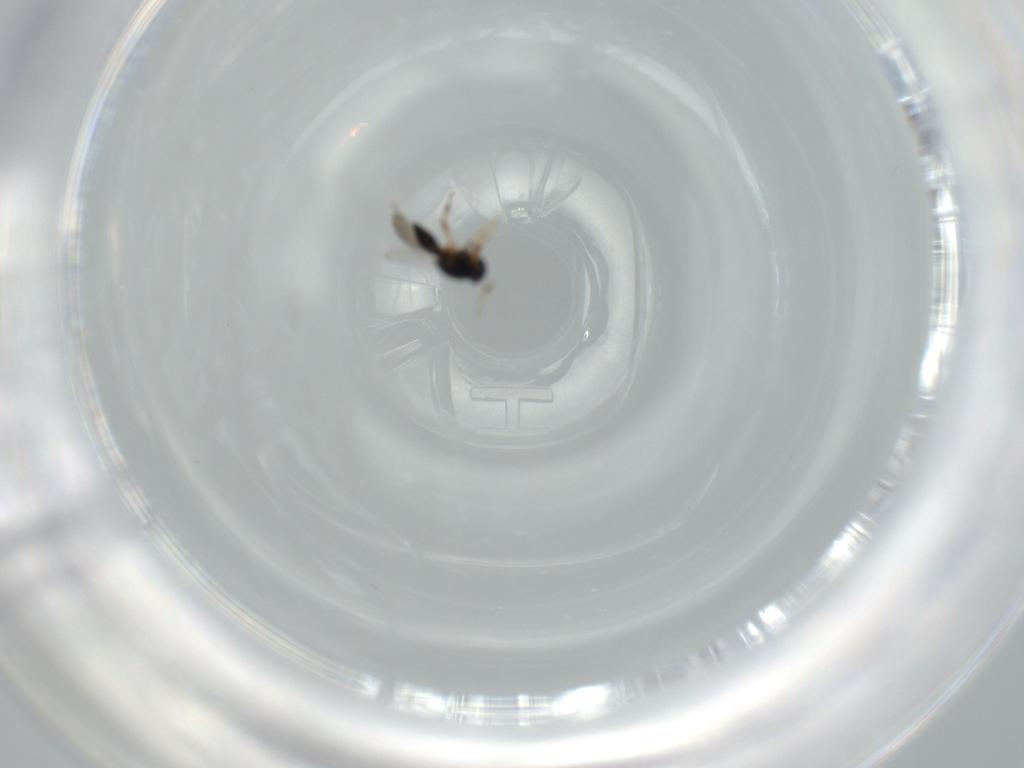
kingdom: Animalia
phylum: Arthropoda
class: Insecta
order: Hymenoptera
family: Platygastridae
